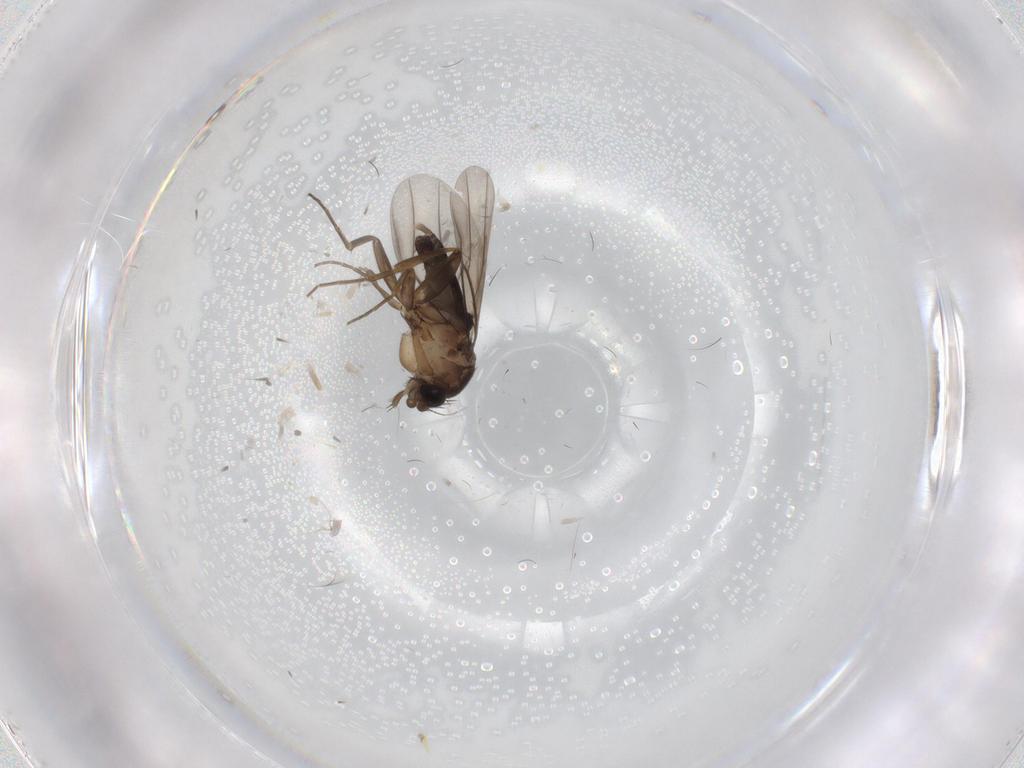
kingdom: Animalia
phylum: Arthropoda
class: Insecta
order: Diptera
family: Phoridae
